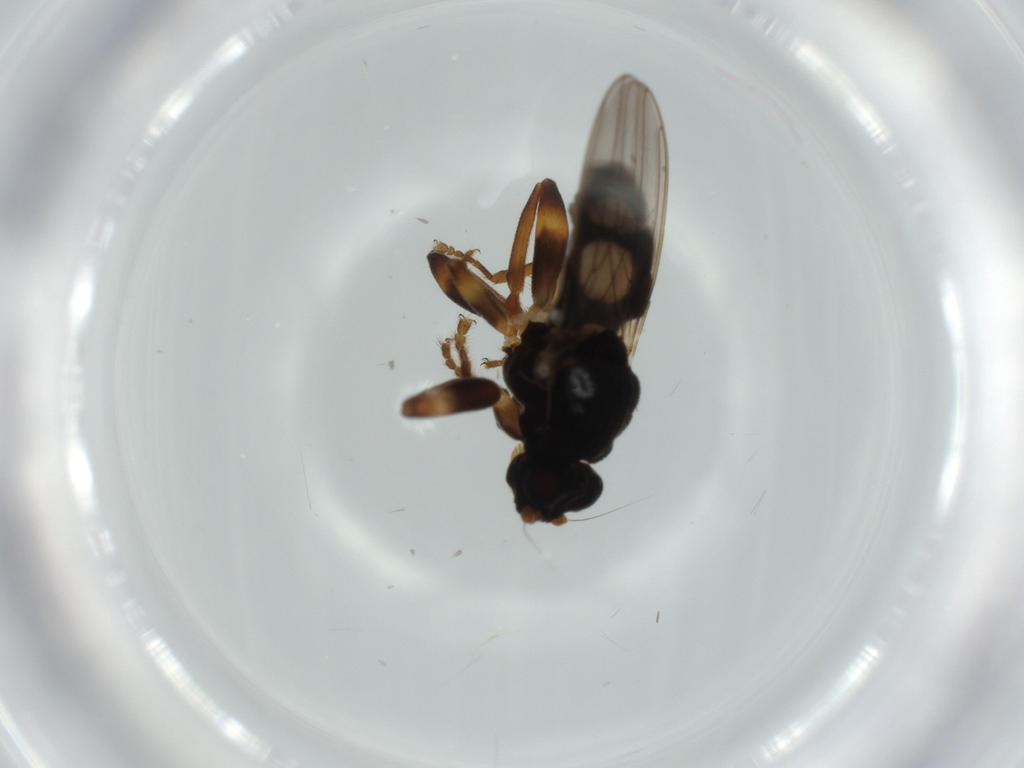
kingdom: Animalia
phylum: Arthropoda
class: Insecta
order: Diptera
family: Sphaeroceridae
